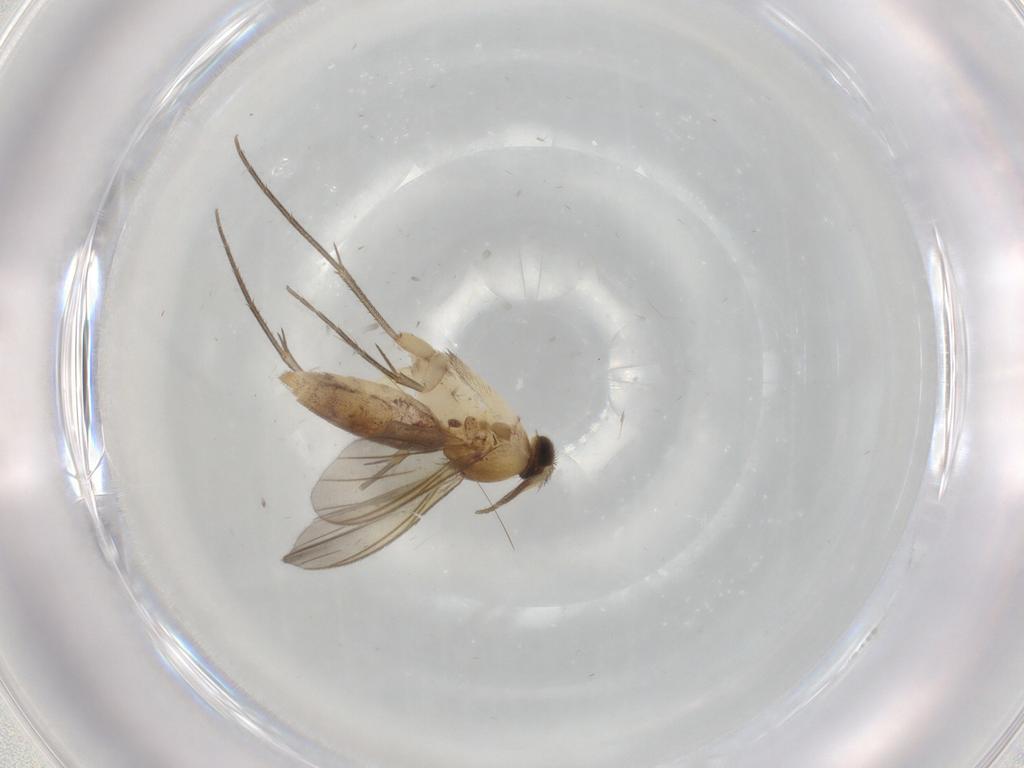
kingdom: Animalia
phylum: Arthropoda
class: Insecta
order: Diptera
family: Mycetophilidae
